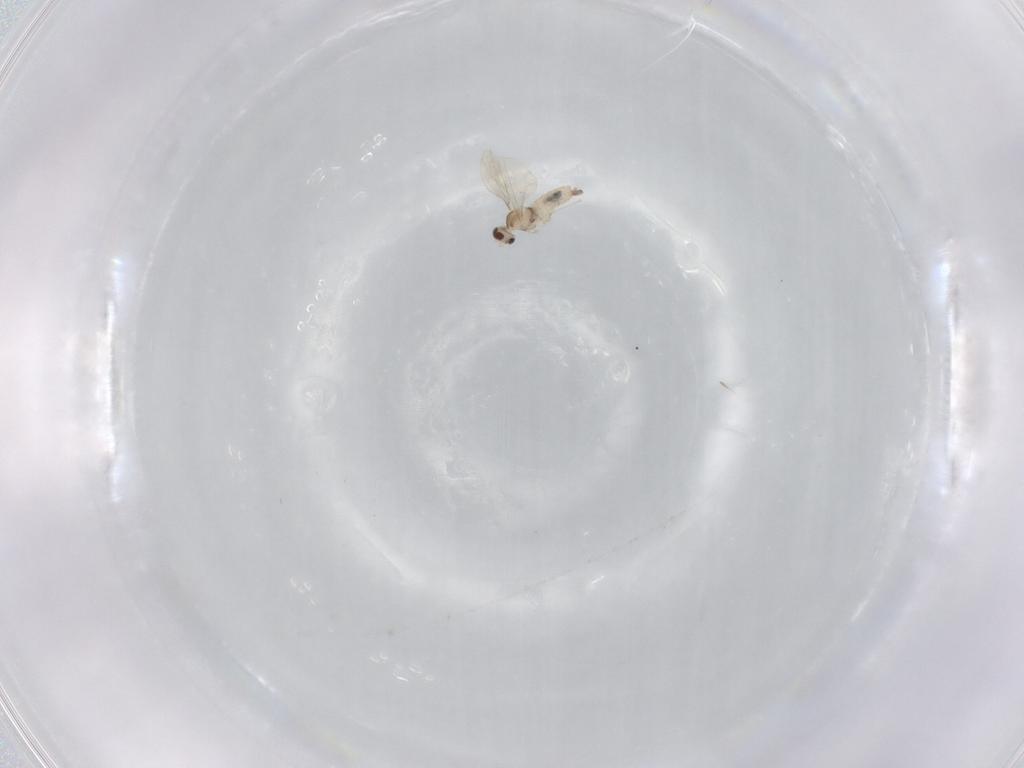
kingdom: Animalia
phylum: Arthropoda
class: Insecta
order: Diptera
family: Cecidomyiidae
